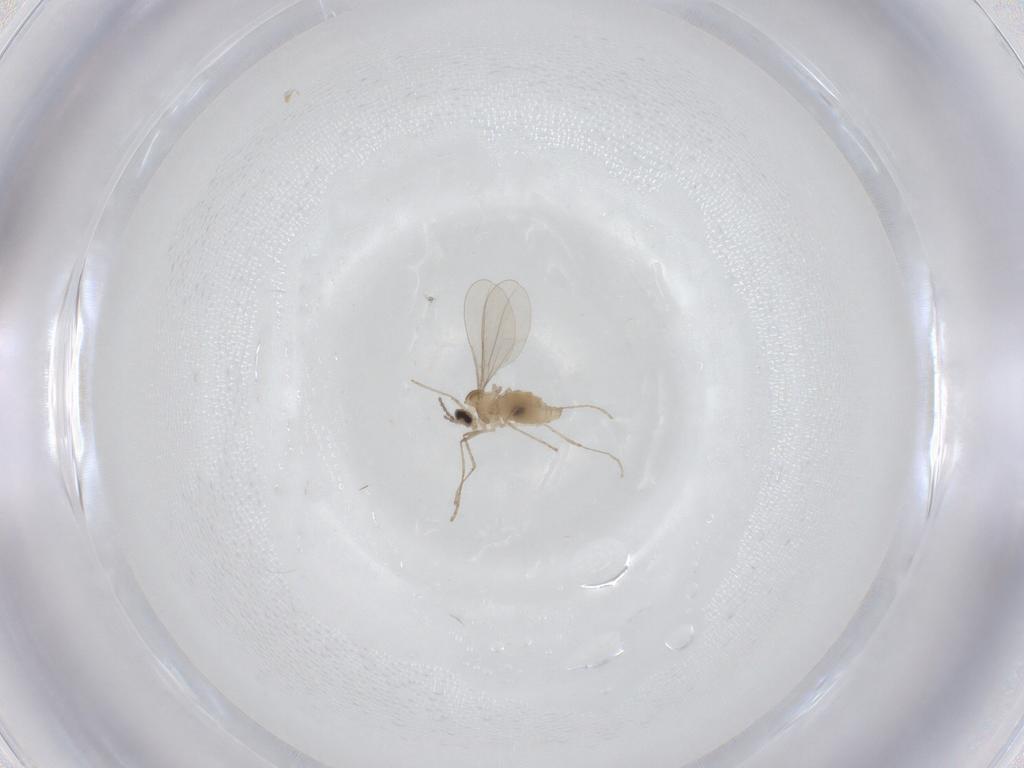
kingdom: Animalia
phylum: Arthropoda
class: Insecta
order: Diptera
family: Cecidomyiidae
